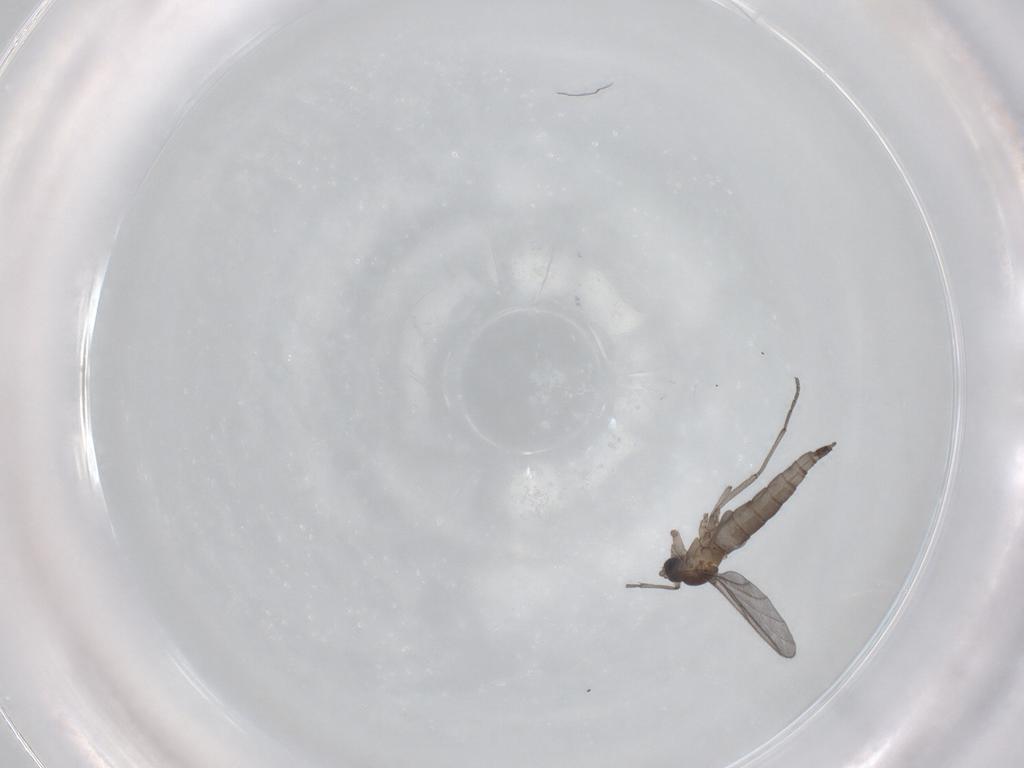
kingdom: Animalia
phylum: Arthropoda
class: Insecta
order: Diptera
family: Sciaridae
